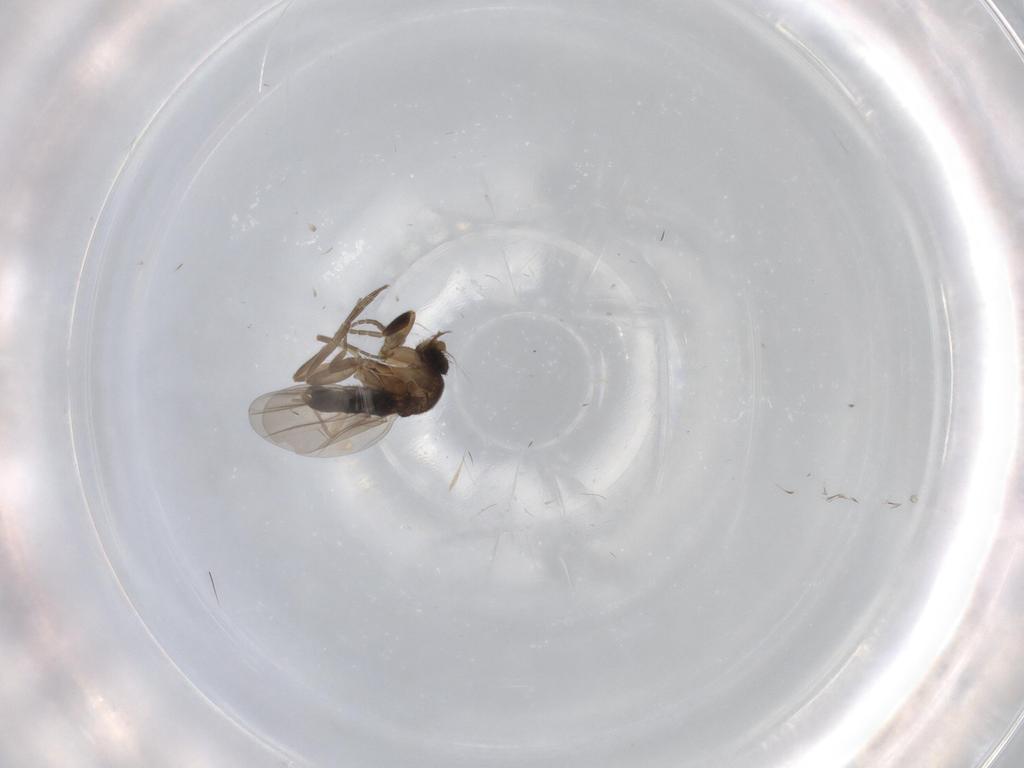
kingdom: Animalia
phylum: Arthropoda
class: Insecta
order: Diptera
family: Phoridae
